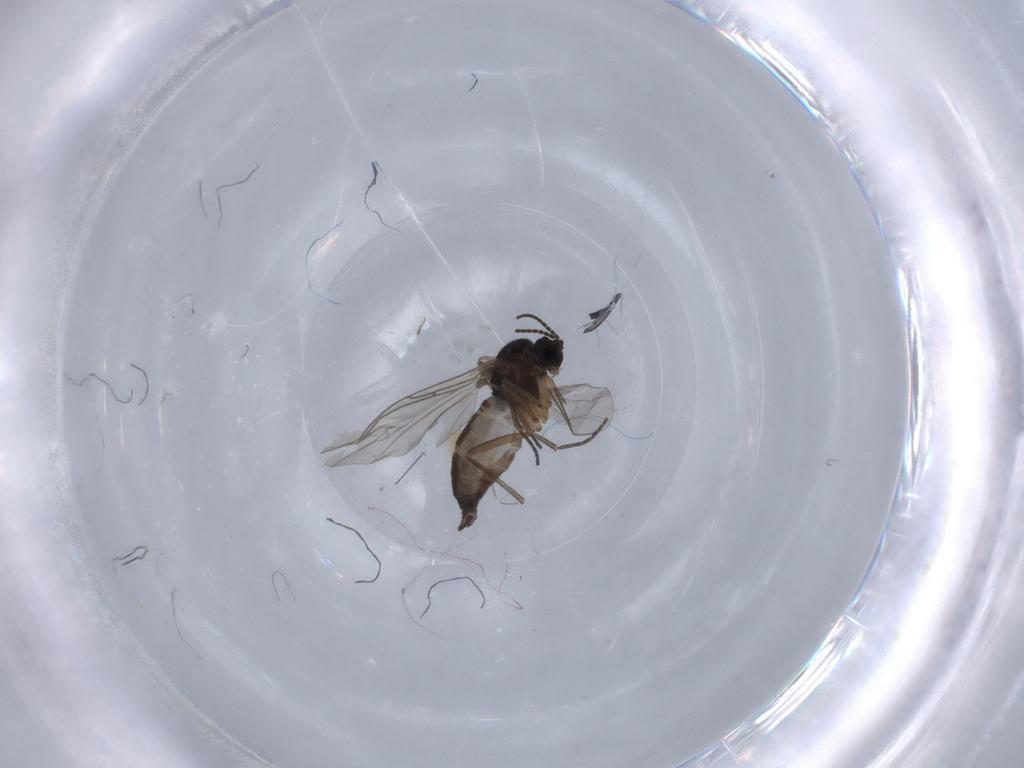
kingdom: Animalia
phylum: Arthropoda
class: Insecta
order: Diptera
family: Sciaridae
